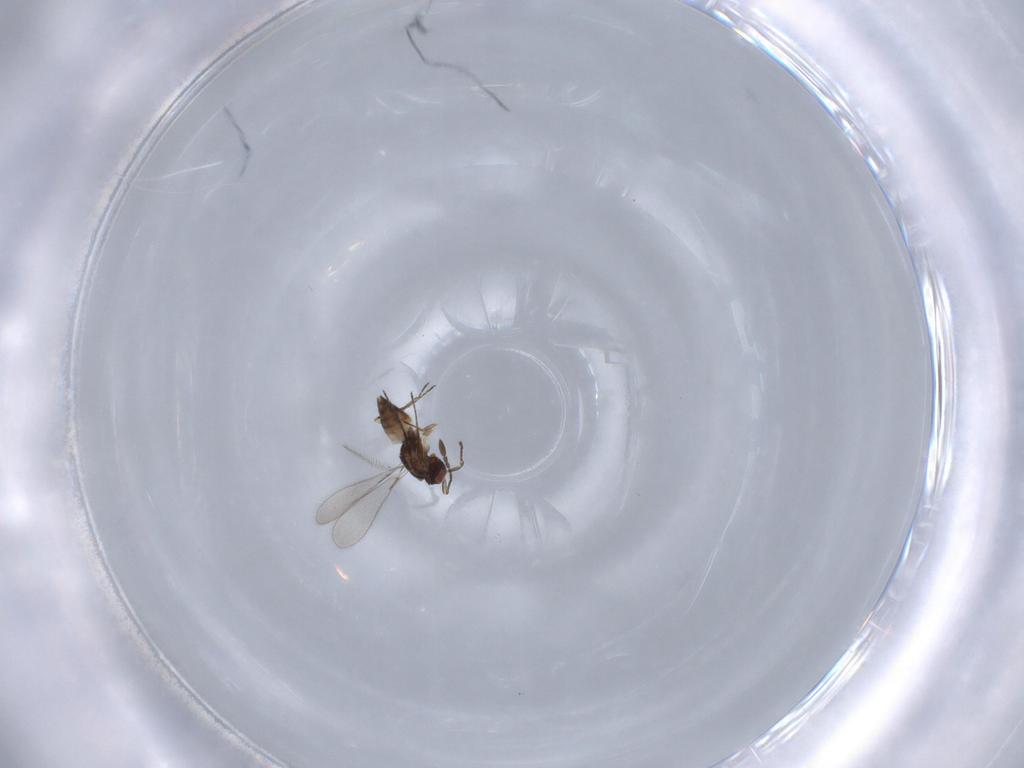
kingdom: Animalia
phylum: Arthropoda
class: Insecta
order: Hymenoptera
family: Mymaridae
